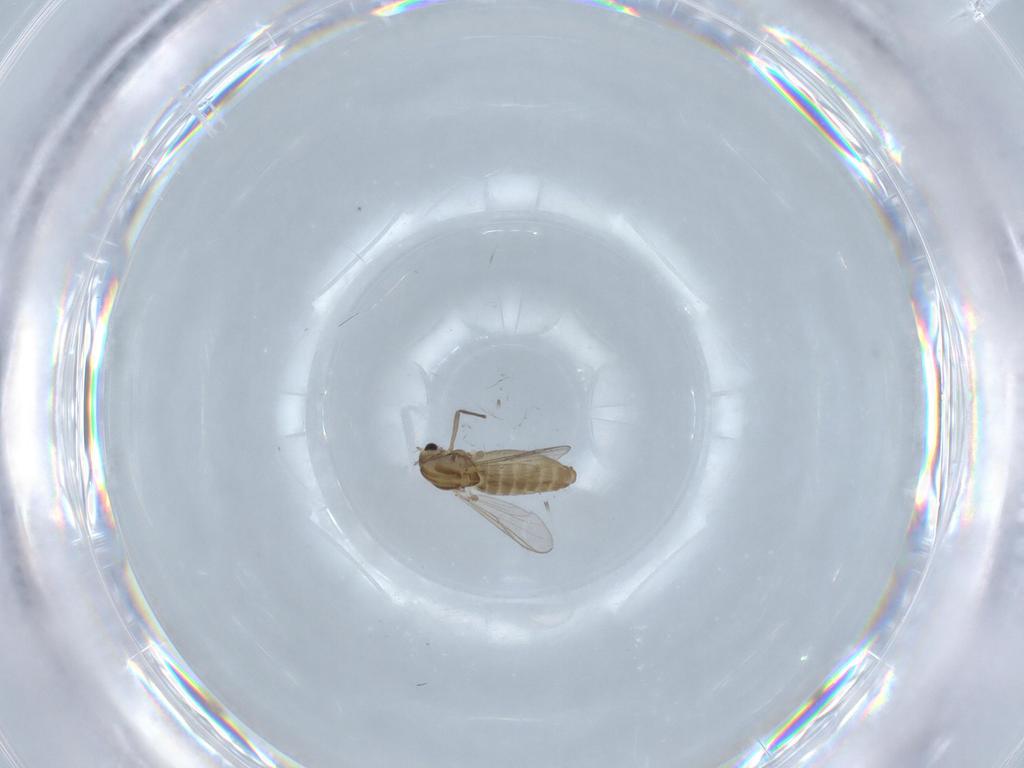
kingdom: Animalia
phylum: Arthropoda
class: Insecta
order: Diptera
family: Chironomidae
